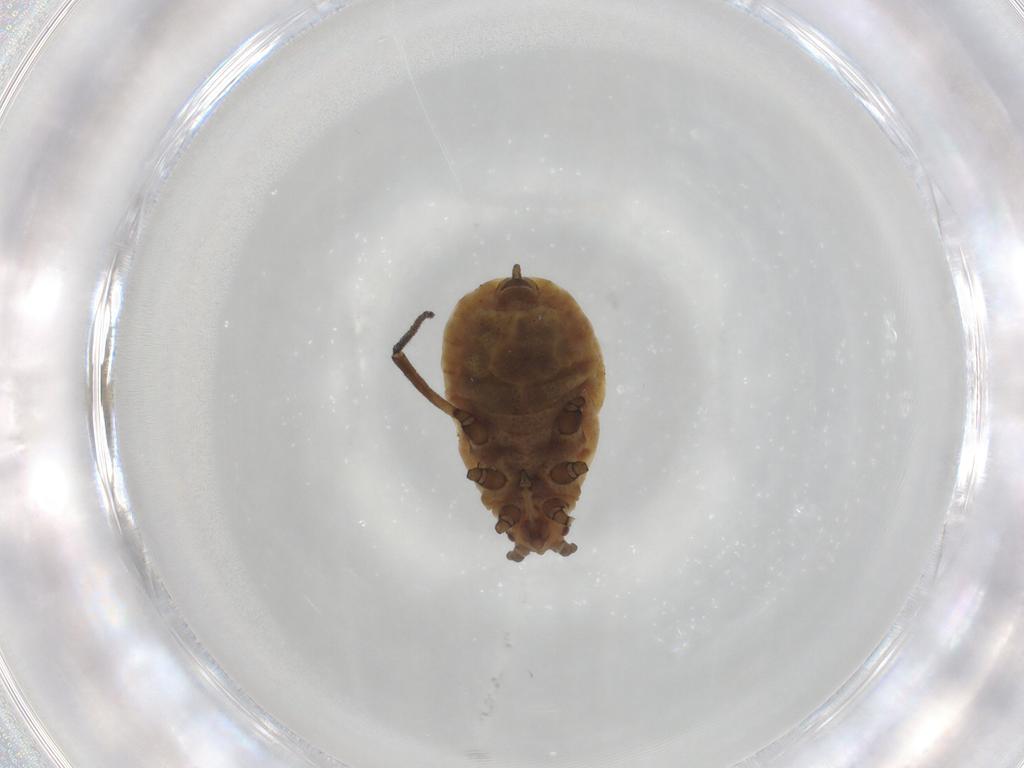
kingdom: Animalia
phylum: Arthropoda
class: Insecta
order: Hemiptera
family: Aphididae
